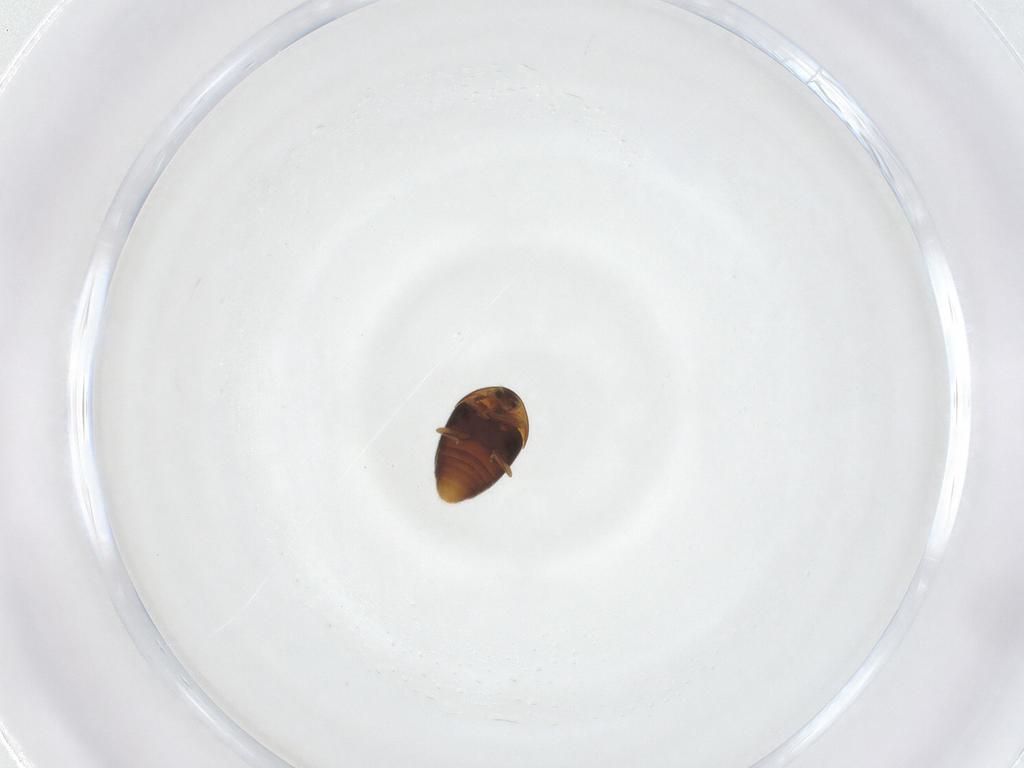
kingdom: Animalia
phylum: Arthropoda
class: Insecta
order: Coleoptera
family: Corylophidae
